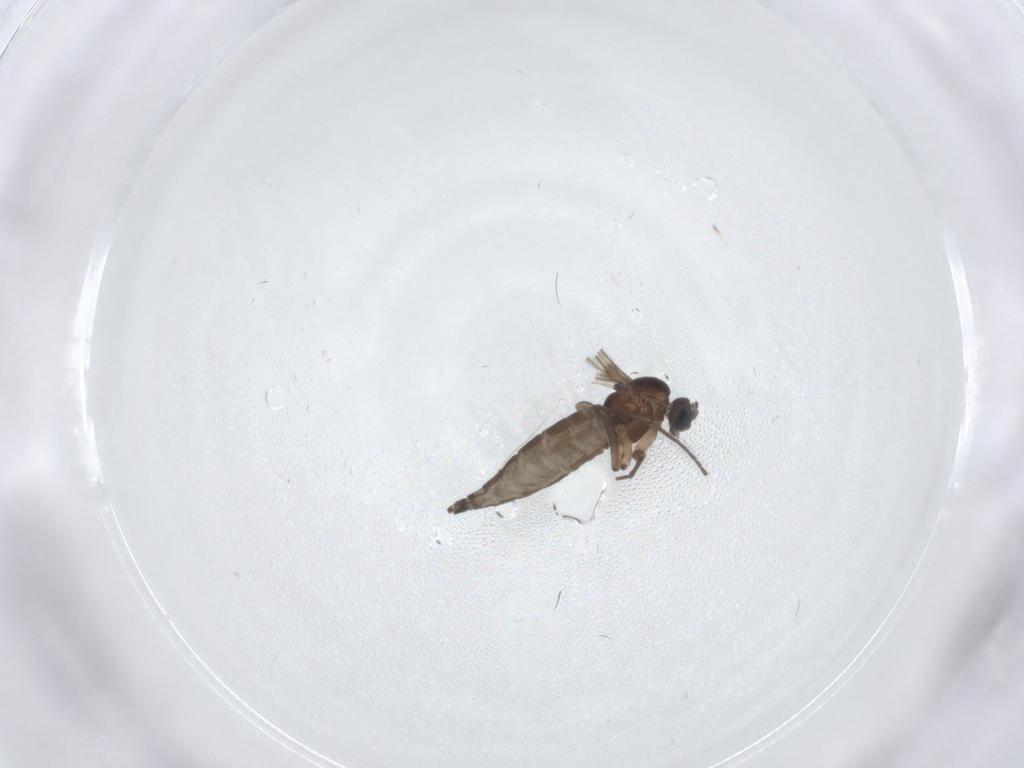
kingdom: Animalia
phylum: Arthropoda
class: Insecta
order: Diptera
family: Sciaridae
